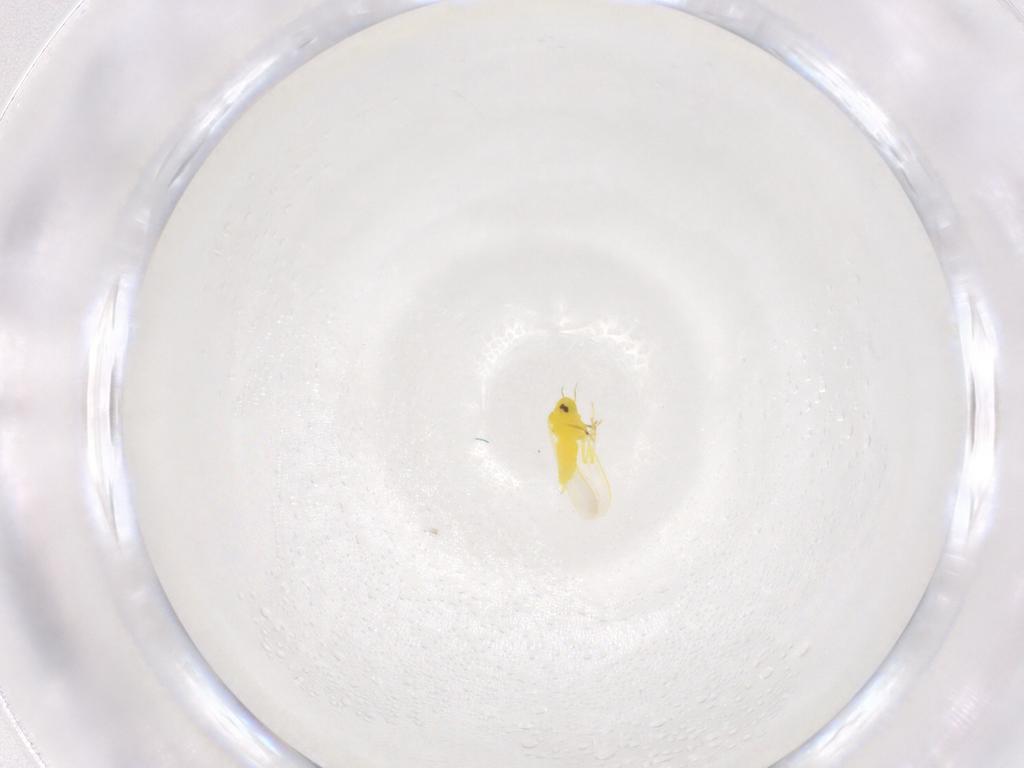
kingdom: Animalia
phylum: Arthropoda
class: Insecta
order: Hemiptera
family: Aleyrodidae
